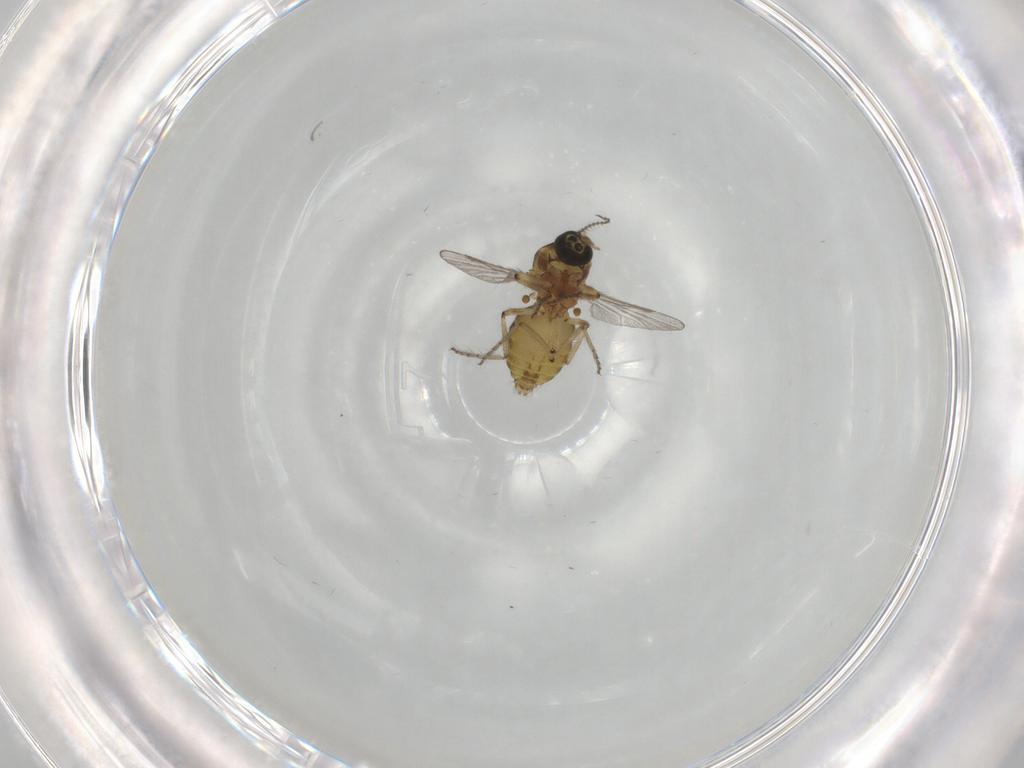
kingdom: Animalia
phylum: Arthropoda
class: Insecta
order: Diptera
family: Ceratopogonidae
